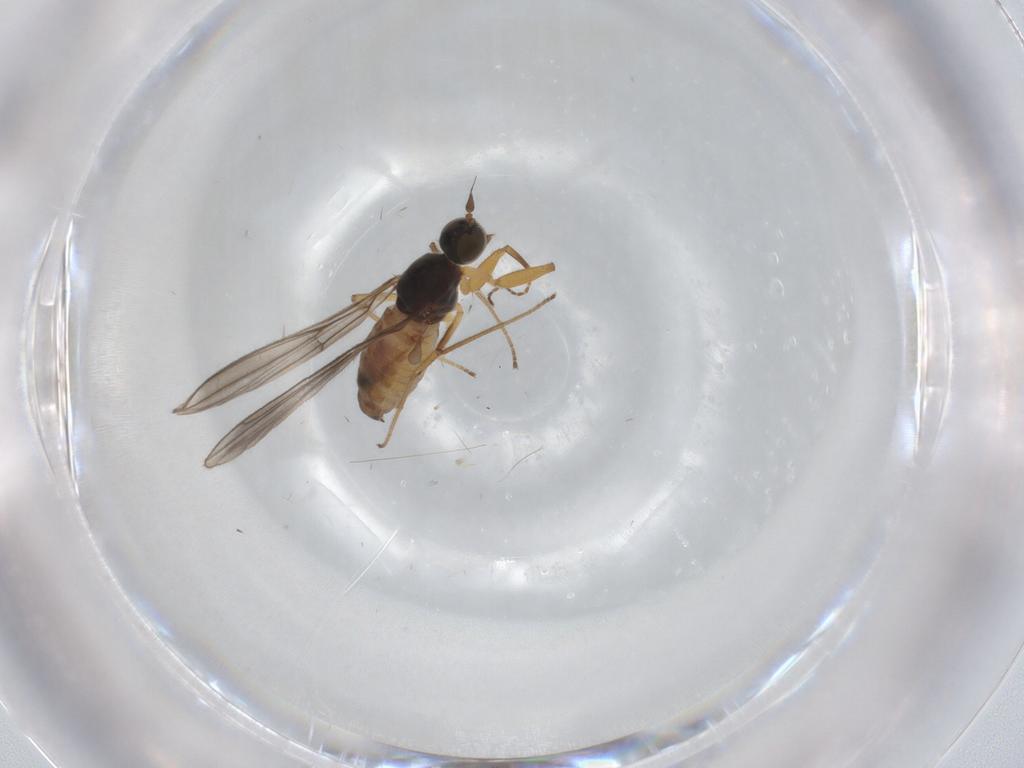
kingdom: Animalia
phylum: Arthropoda
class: Insecta
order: Diptera
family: Empididae
